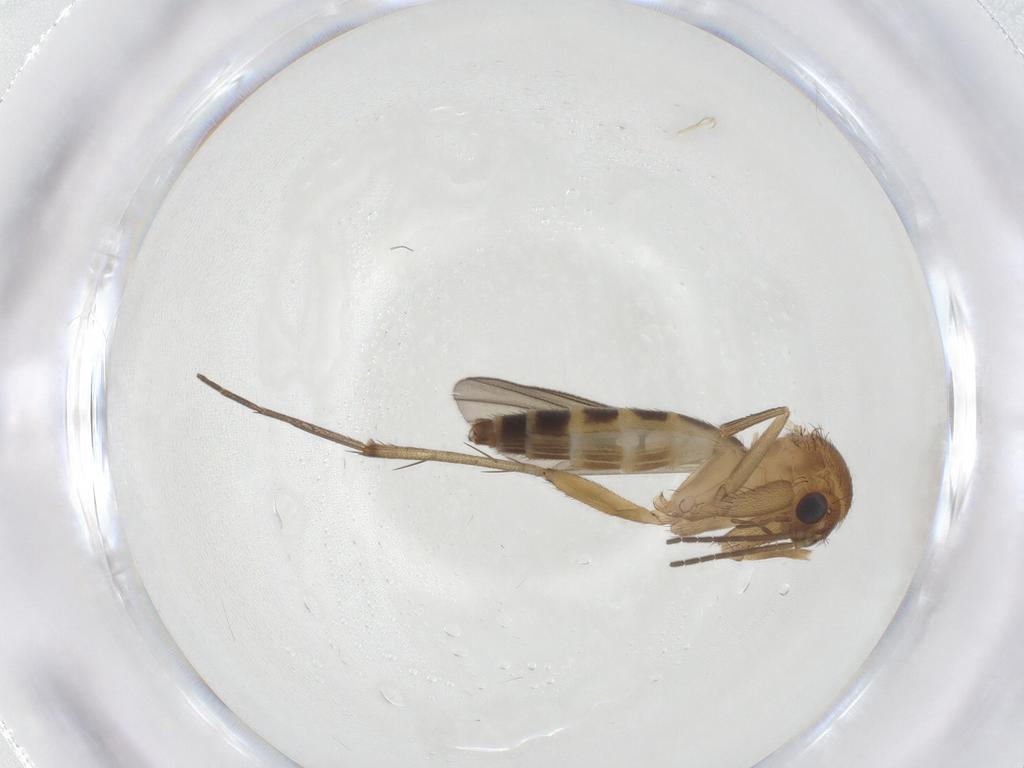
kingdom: Animalia
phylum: Arthropoda
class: Insecta
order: Diptera
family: Mycetophilidae
